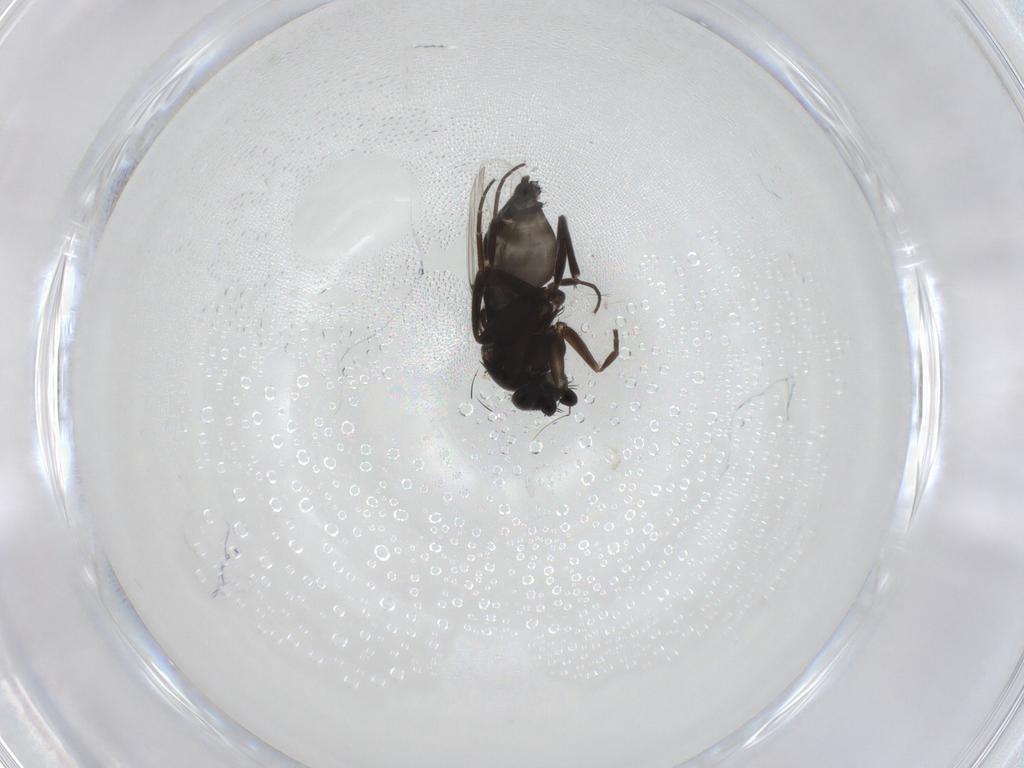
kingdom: Animalia
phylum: Arthropoda
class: Insecta
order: Diptera
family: Phoridae
